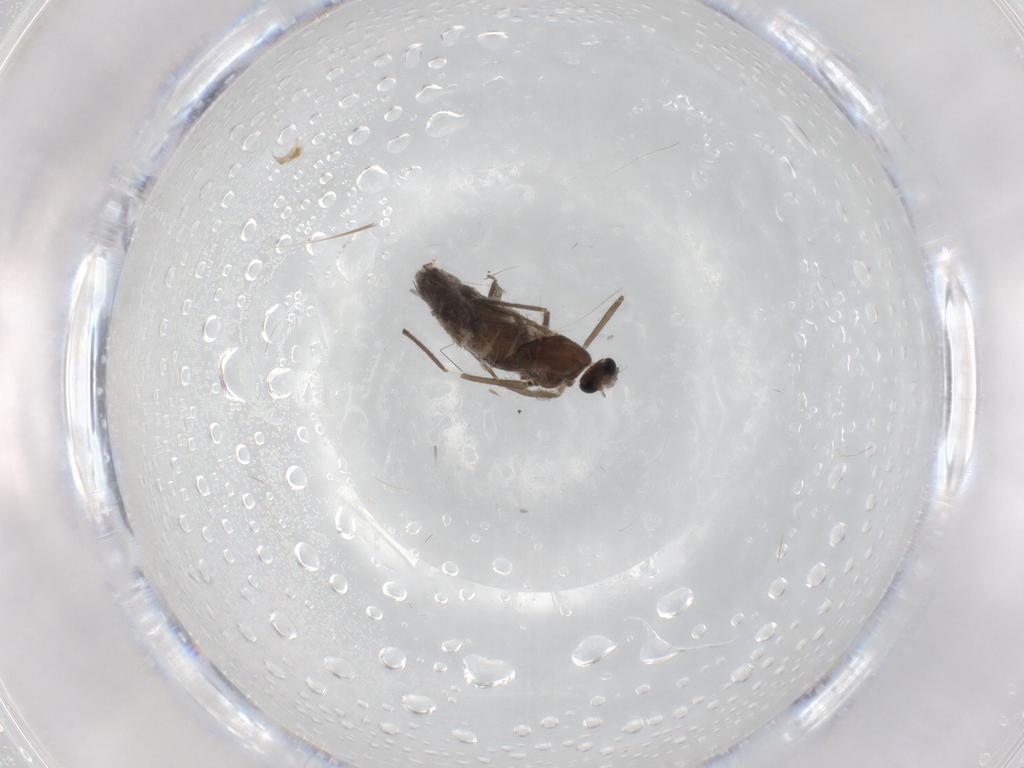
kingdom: Animalia
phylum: Arthropoda
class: Insecta
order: Diptera
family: Chironomidae
